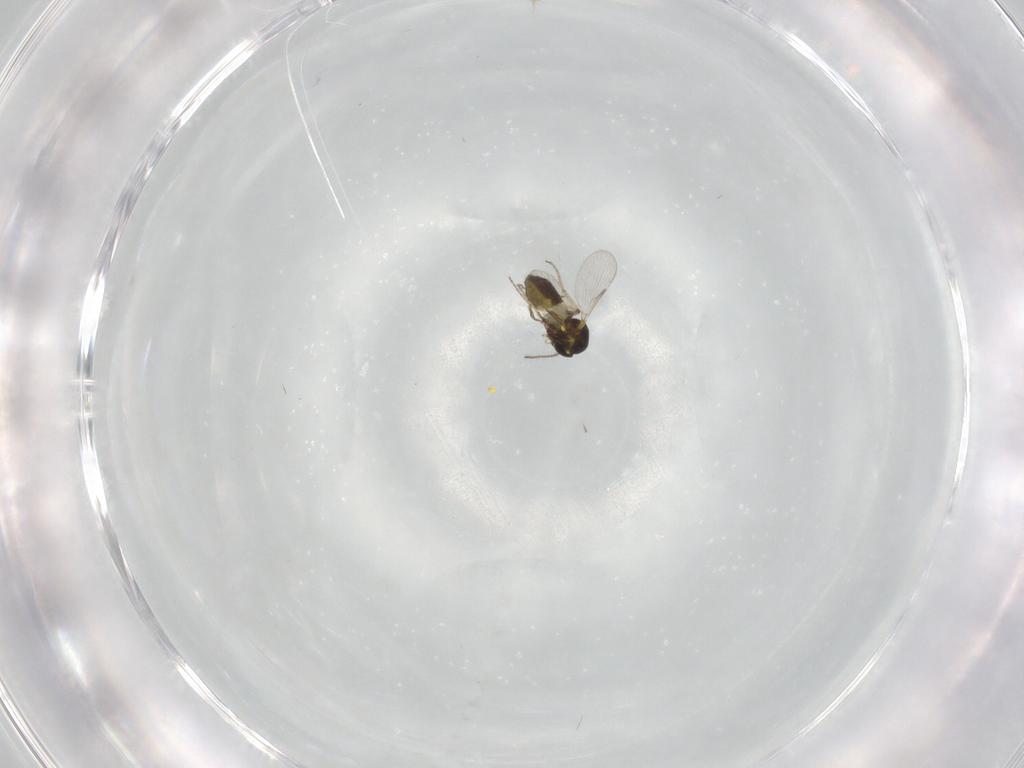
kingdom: Animalia
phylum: Arthropoda
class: Insecta
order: Diptera
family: Ceratopogonidae
